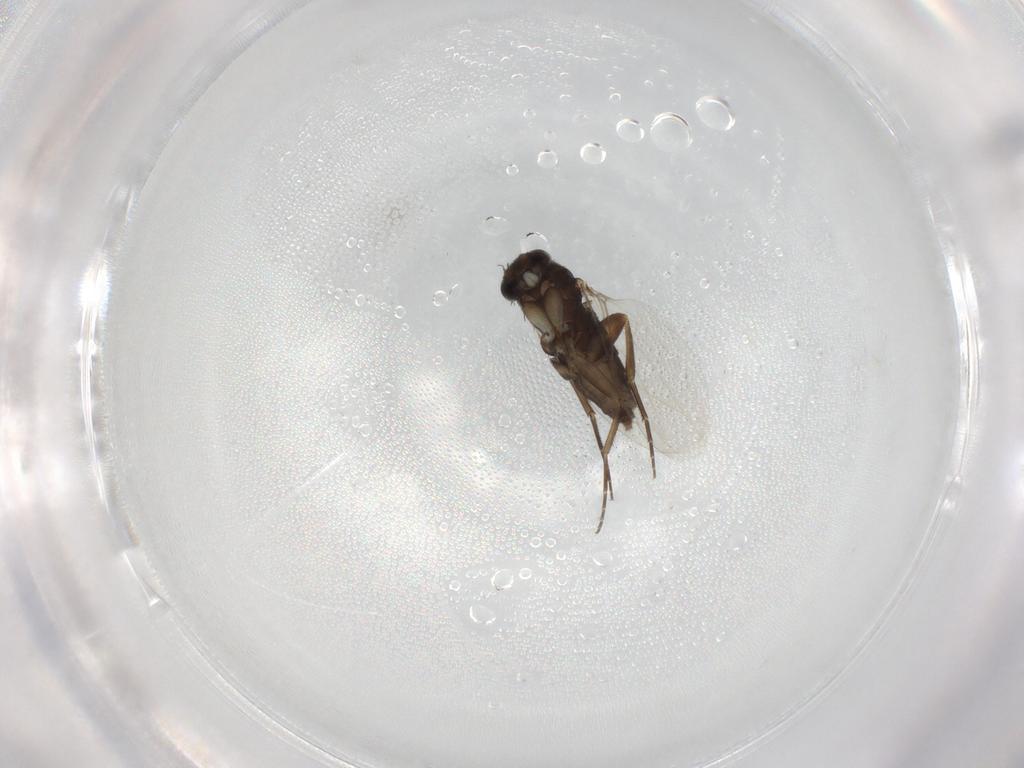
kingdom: Animalia
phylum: Arthropoda
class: Insecta
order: Diptera
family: Phoridae
